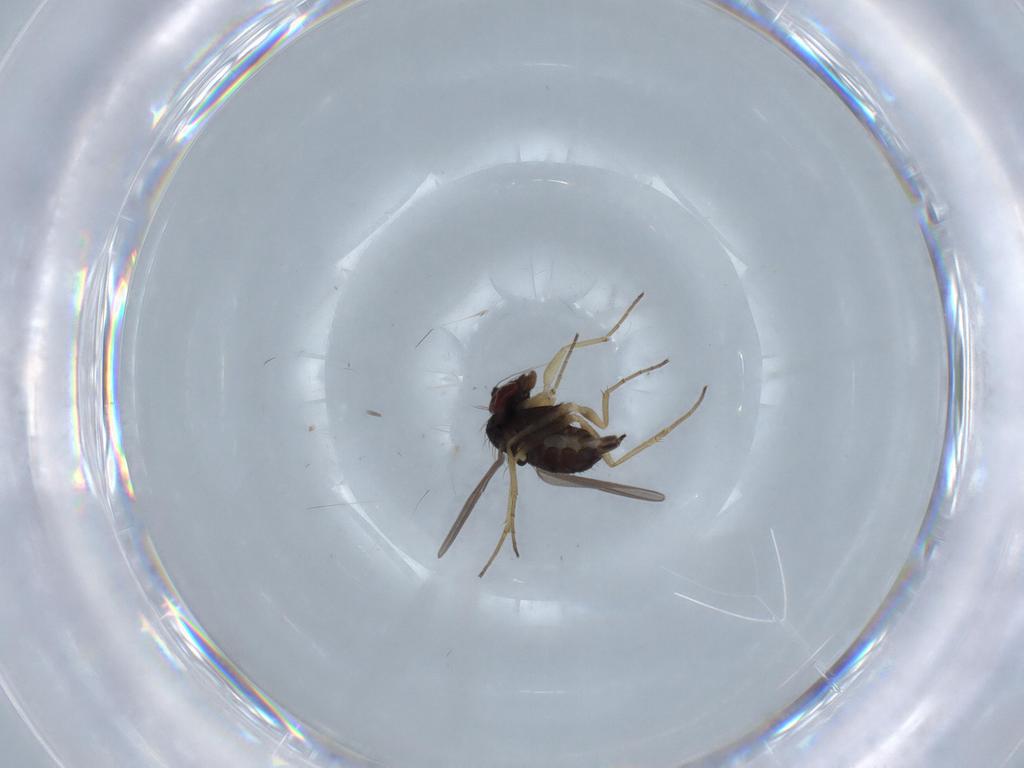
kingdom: Animalia
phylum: Arthropoda
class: Insecta
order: Diptera
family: Dolichopodidae
